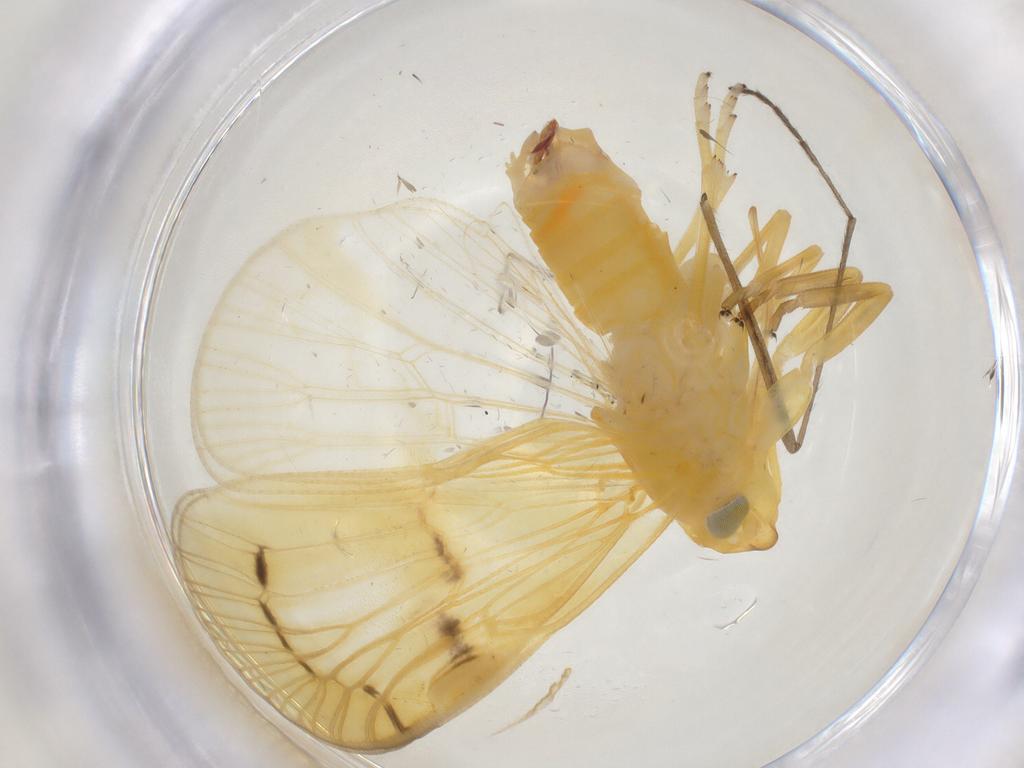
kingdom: Animalia
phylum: Arthropoda
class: Insecta
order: Hemiptera
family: Cixiidae
